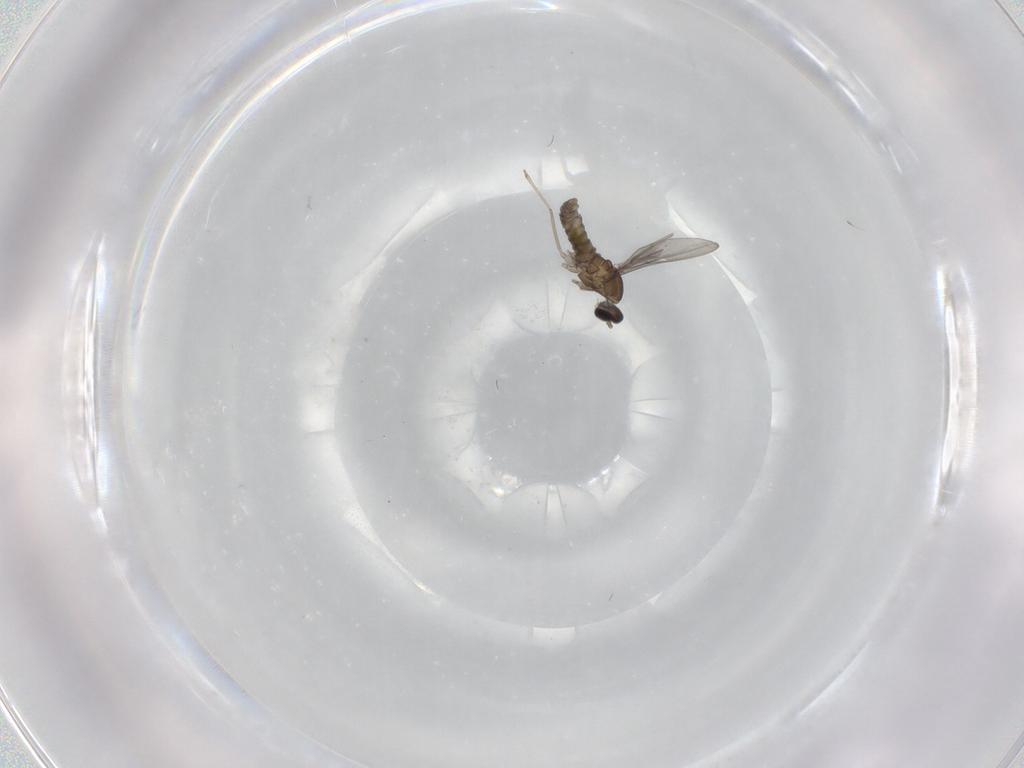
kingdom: Animalia
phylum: Arthropoda
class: Insecta
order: Diptera
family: Cecidomyiidae
